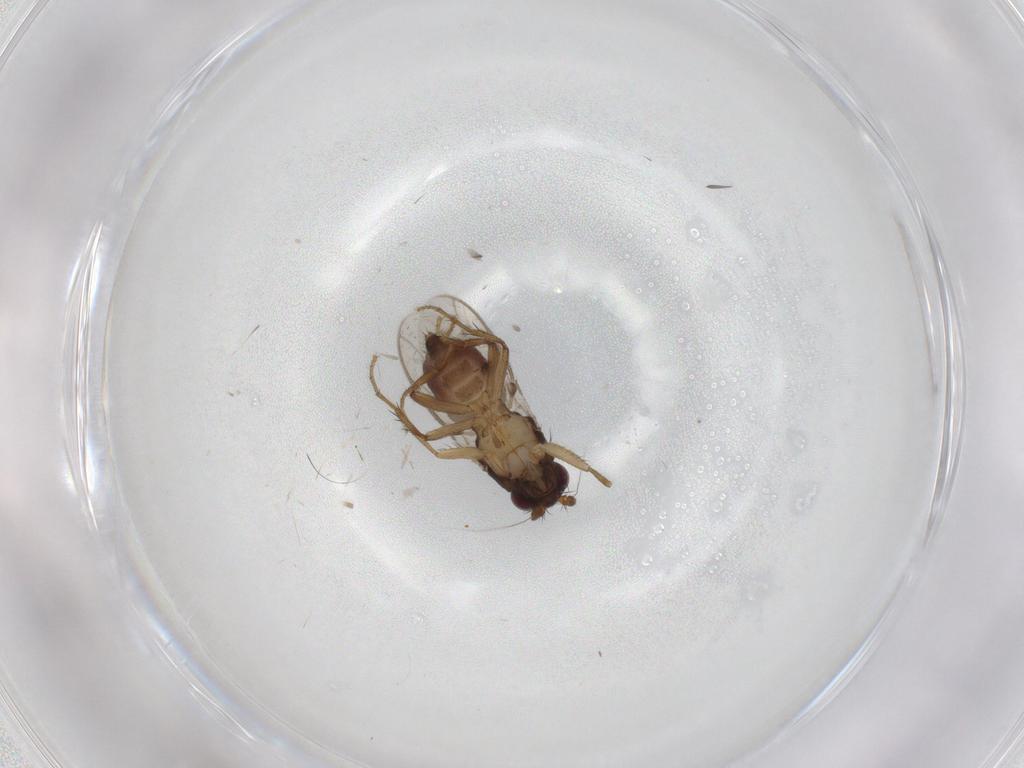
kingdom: Animalia
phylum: Arthropoda
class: Insecta
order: Diptera
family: Sphaeroceridae
